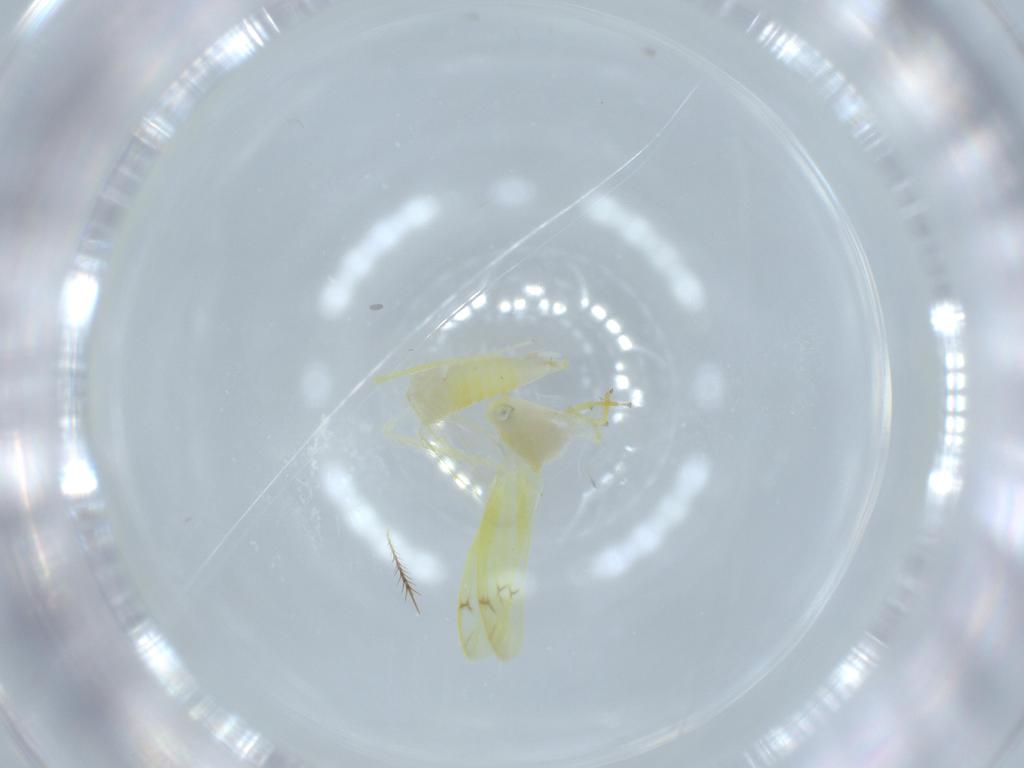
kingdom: Animalia
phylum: Arthropoda
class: Insecta
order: Hemiptera
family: Cicadellidae
